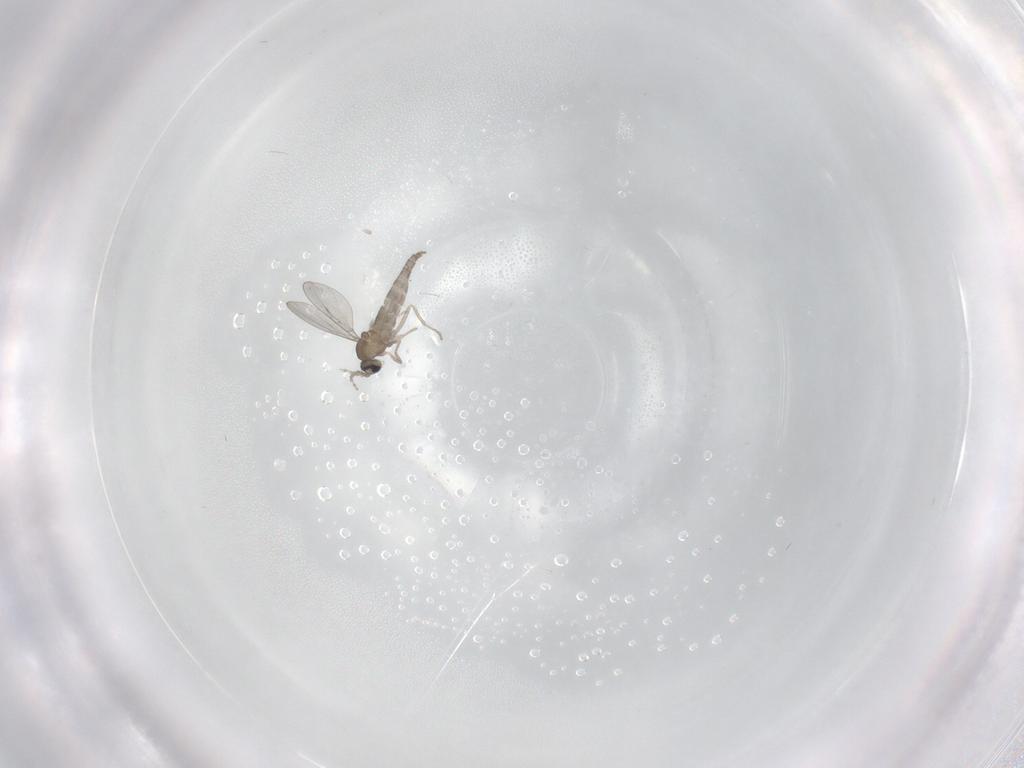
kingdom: Animalia
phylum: Arthropoda
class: Insecta
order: Diptera
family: Cecidomyiidae
